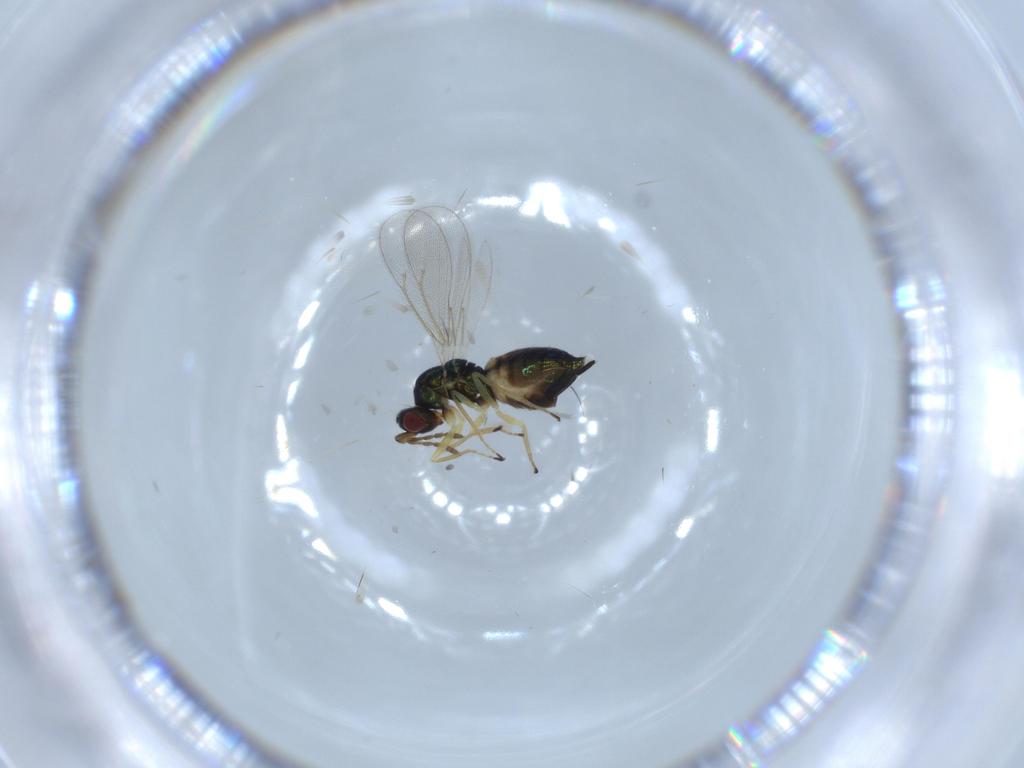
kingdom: Animalia
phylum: Arthropoda
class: Insecta
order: Hymenoptera
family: Eulophidae
